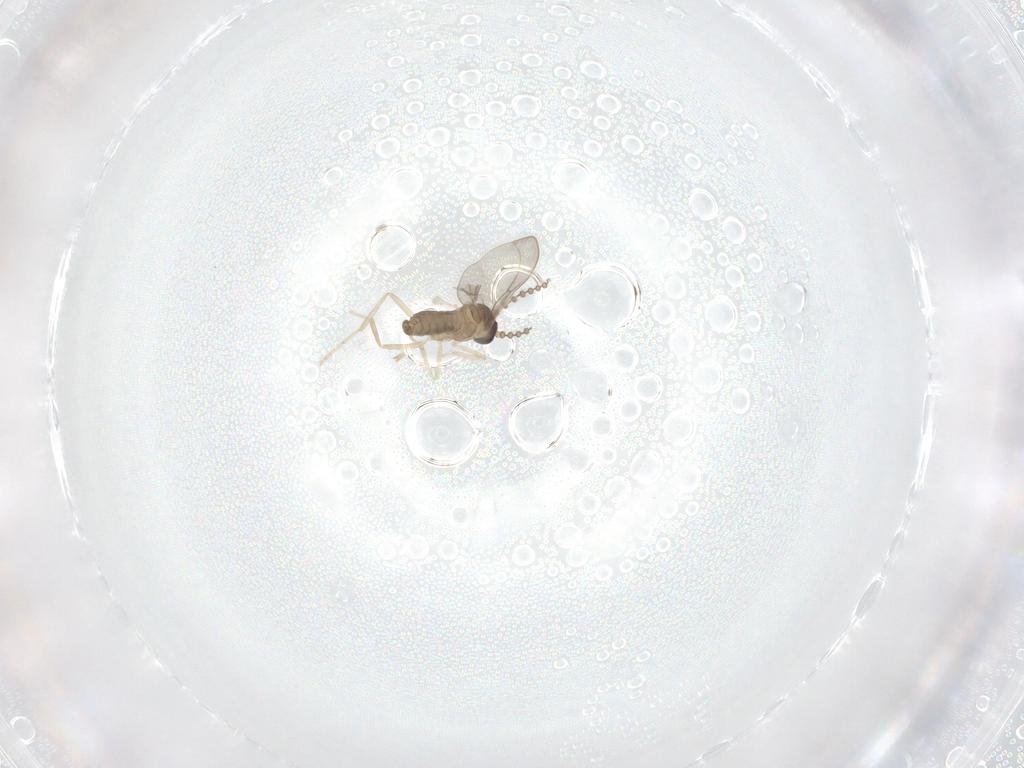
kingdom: Animalia
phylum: Arthropoda
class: Insecta
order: Diptera
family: Cecidomyiidae
